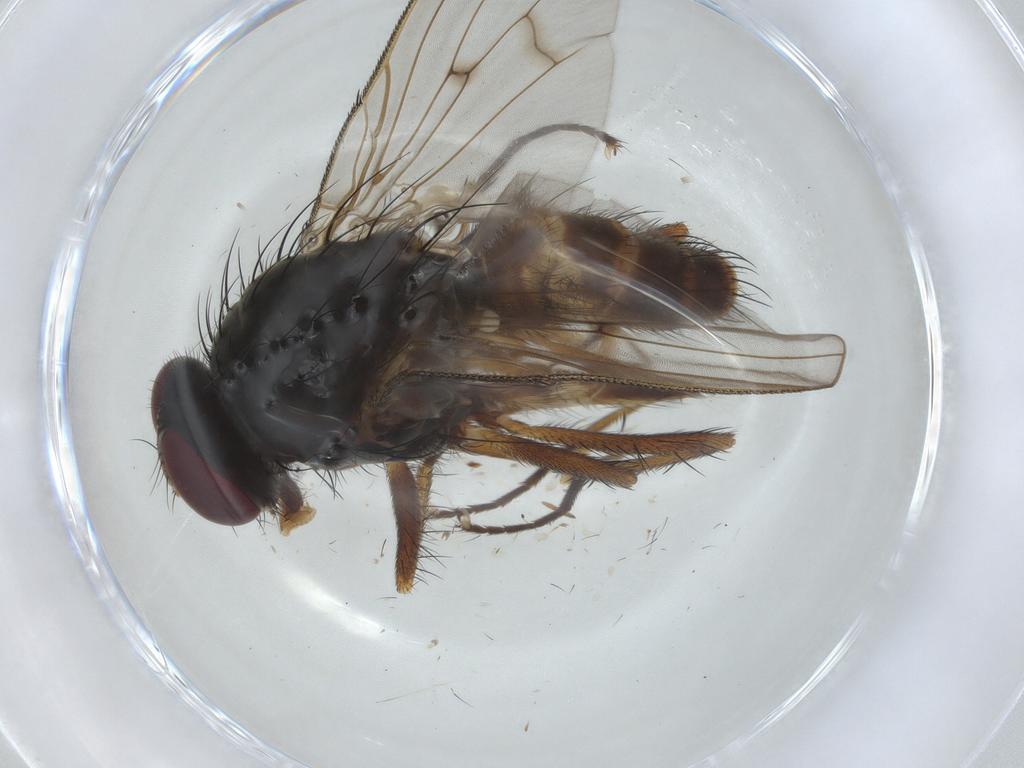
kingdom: Animalia
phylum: Arthropoda
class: Insecta
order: Diptera
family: Anthomyiidae
